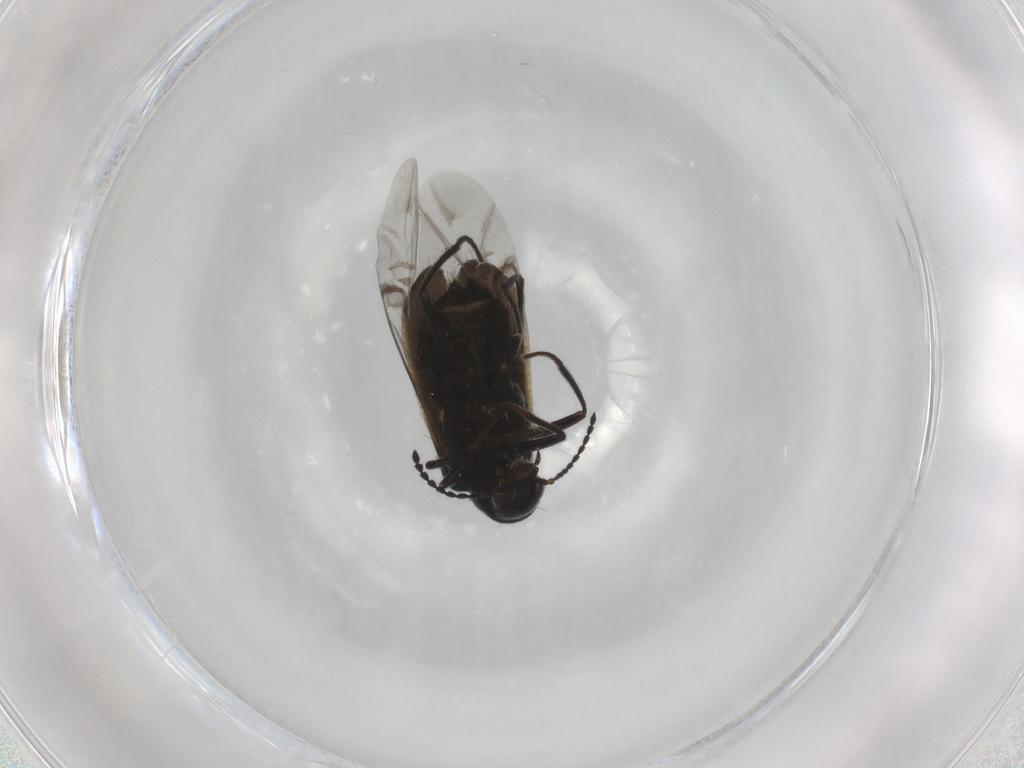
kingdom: Animalia
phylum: Arthropoda
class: Insecta
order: Coleoptera
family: Melyridae
